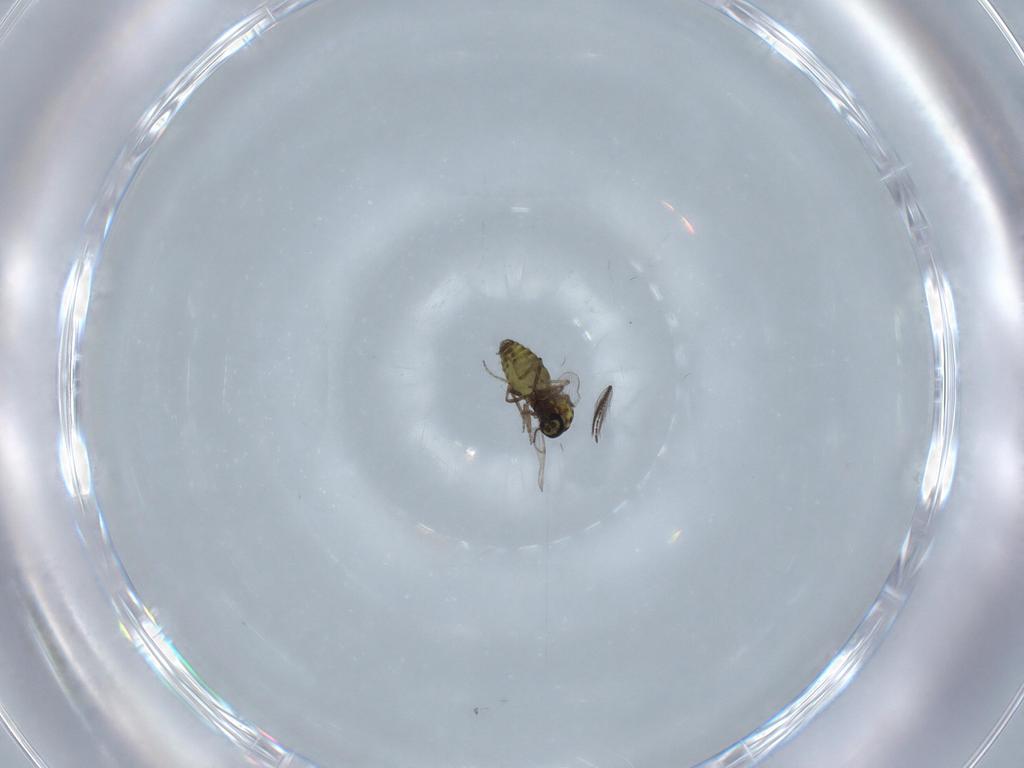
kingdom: Animalia
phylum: Arthropoda
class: Insecta
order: Diptera
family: Ceratopogonidae
